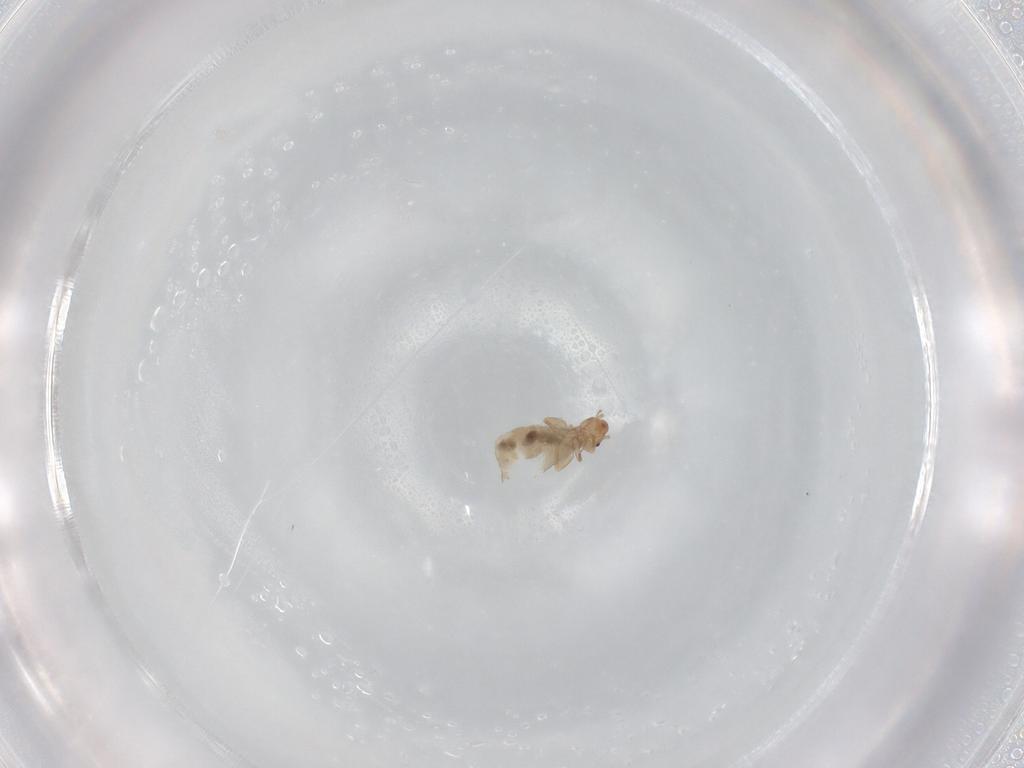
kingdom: Animalia
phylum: Arthropoda
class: Insecta
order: Psocodea
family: Liposcelididae
